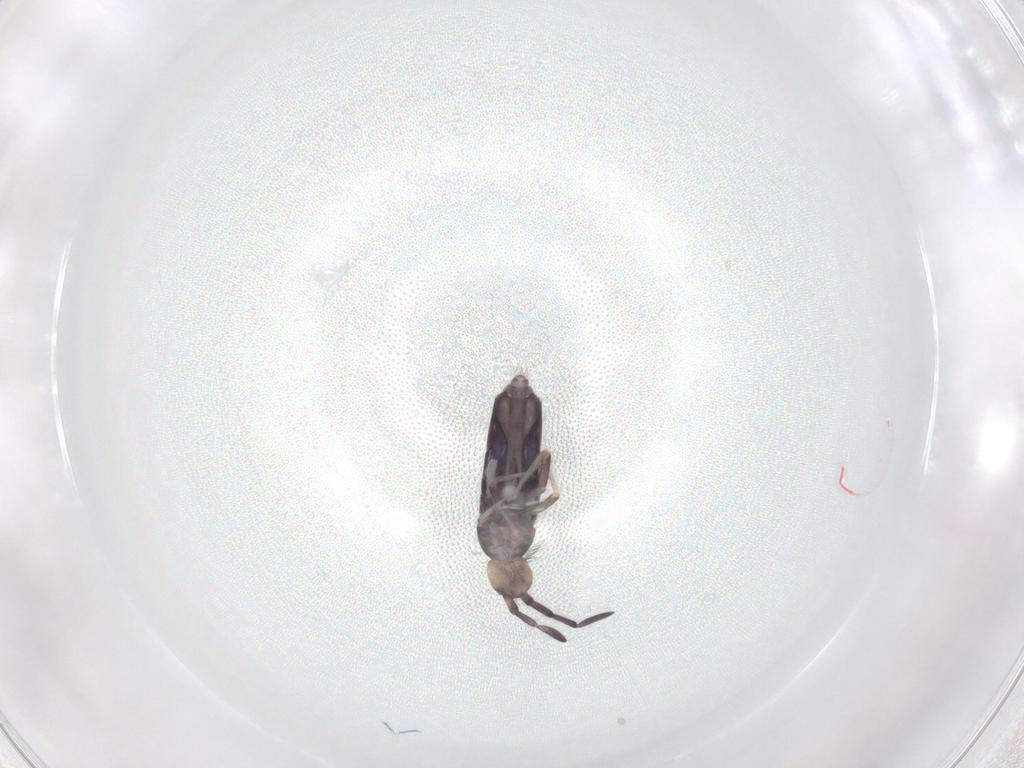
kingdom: Animalia
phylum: Arthropoda
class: Collembola
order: Entomobryomorpha
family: Entomobryidae
